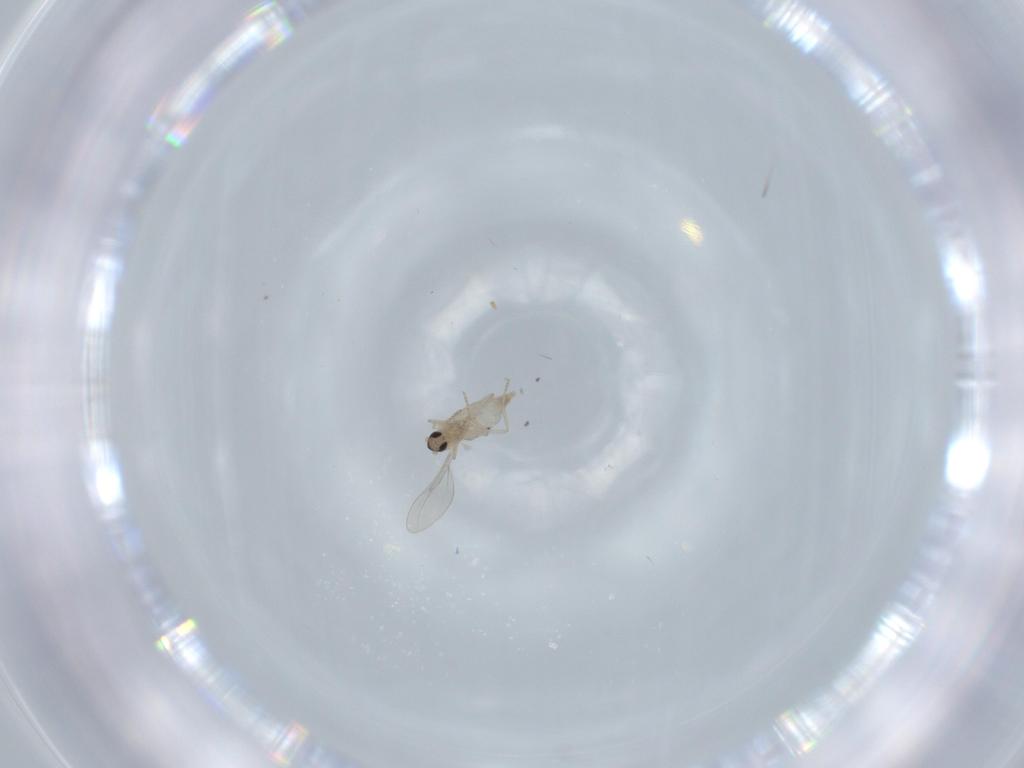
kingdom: Animalia
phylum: Arthropoda
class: Insecta
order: Diptera
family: Cecidomyiidae
